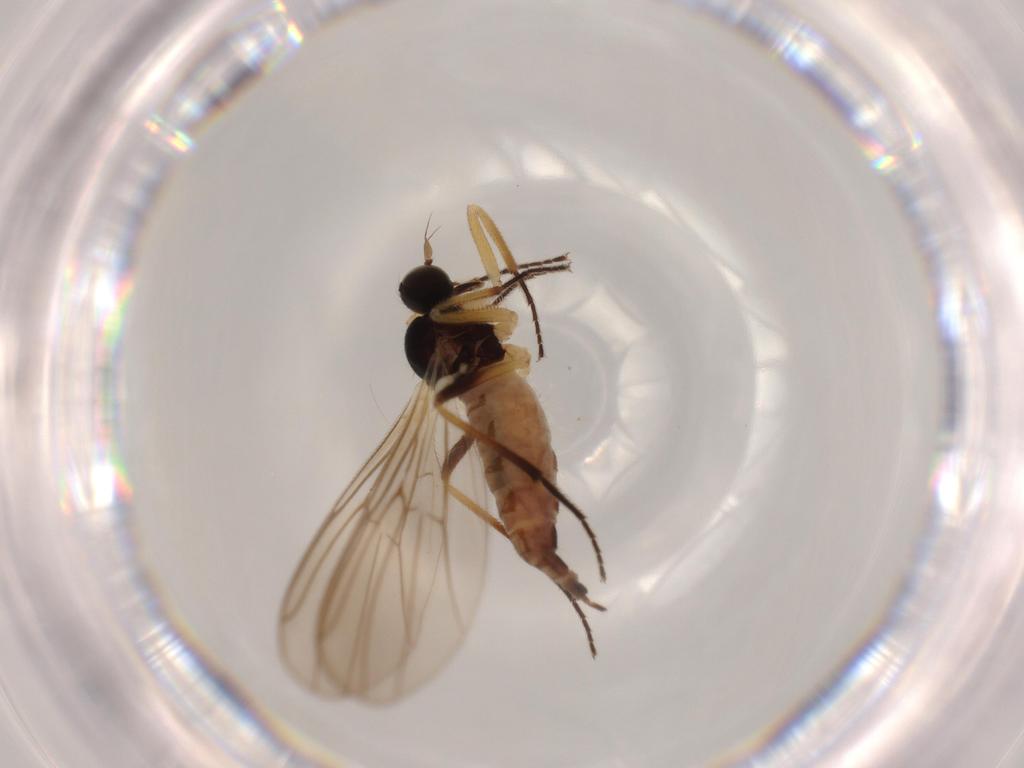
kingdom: Animalia
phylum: Arthropoda
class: Insecta
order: Diptera
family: Chironomidae
